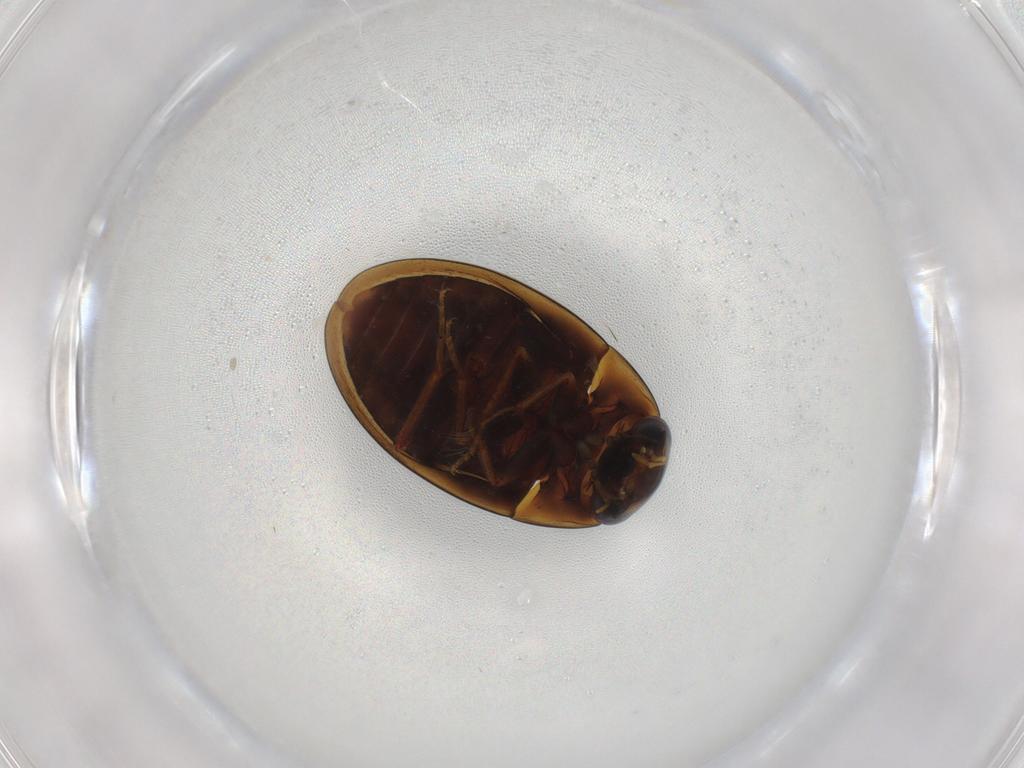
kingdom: Animalia
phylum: Arthropoda
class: Insecta
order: Coleoptera
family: Hydrophilidae
